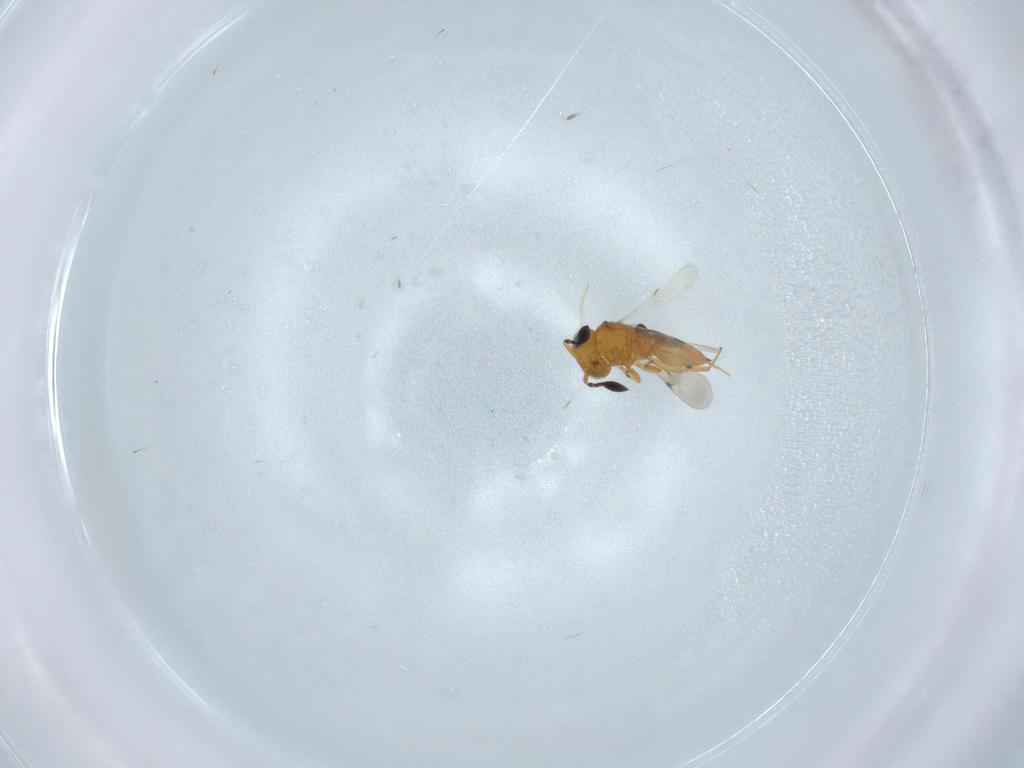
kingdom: Animalia
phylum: Arthropoda
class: Insecta
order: Hymenoptera
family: Scelionidae
